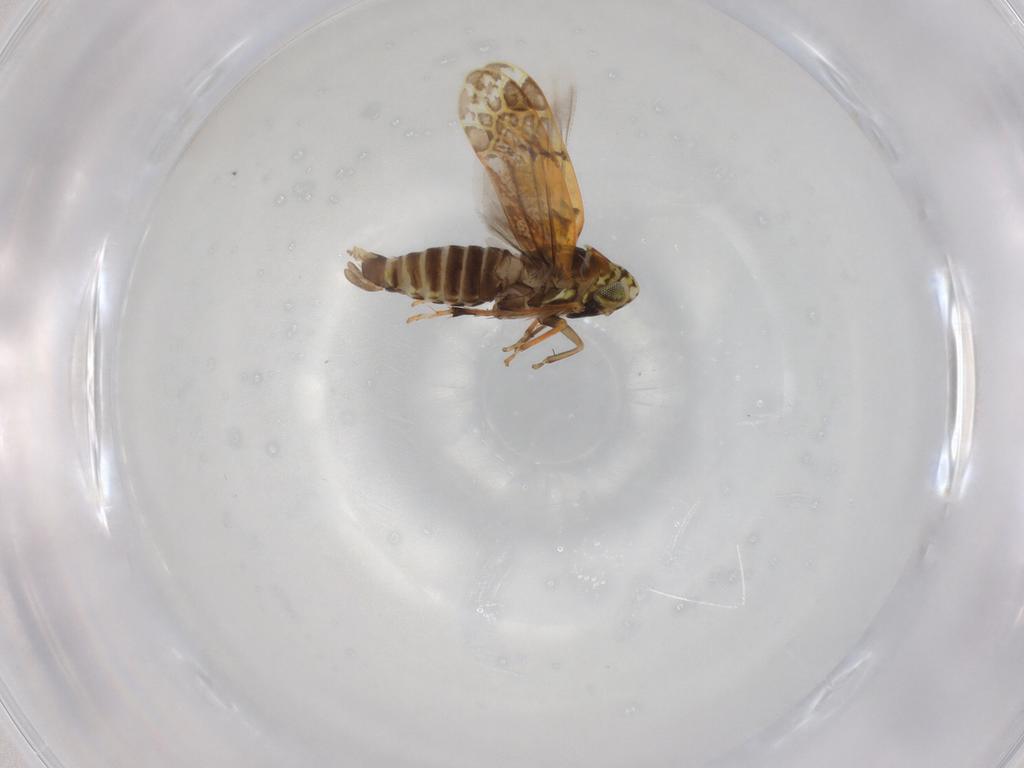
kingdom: Animalia
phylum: Arthropoda
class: Insecta
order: Hemiptera
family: Cicadellidae
